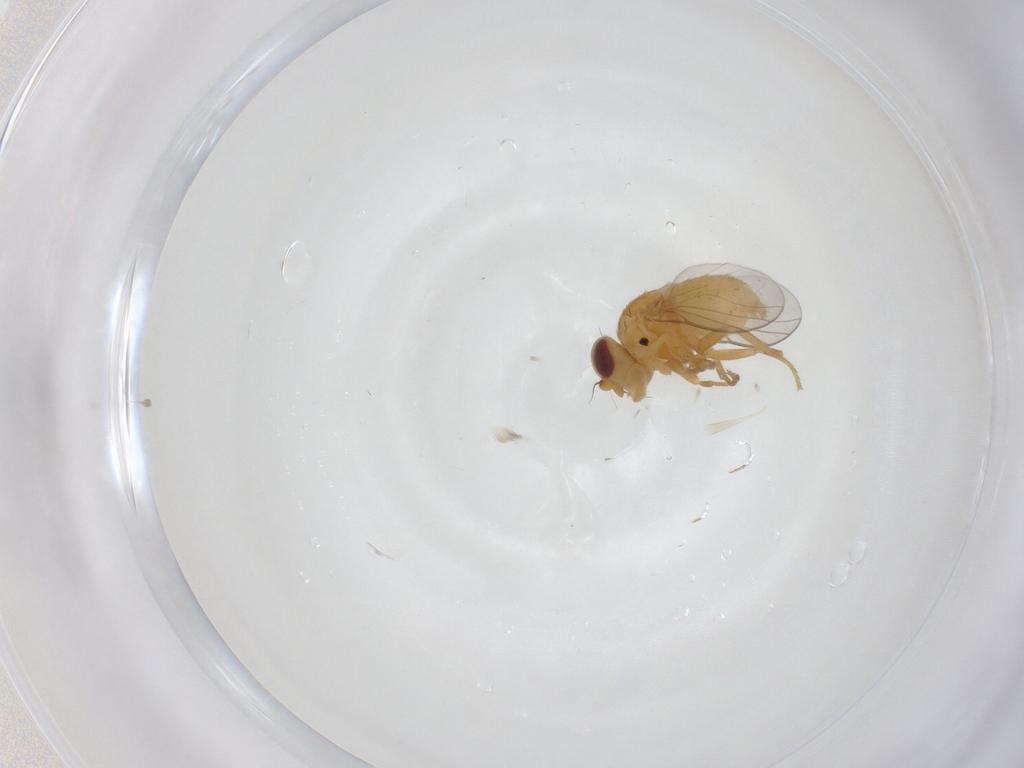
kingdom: Animalia
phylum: Arthropoda
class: Insecta
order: Diptera
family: Chloropidae
